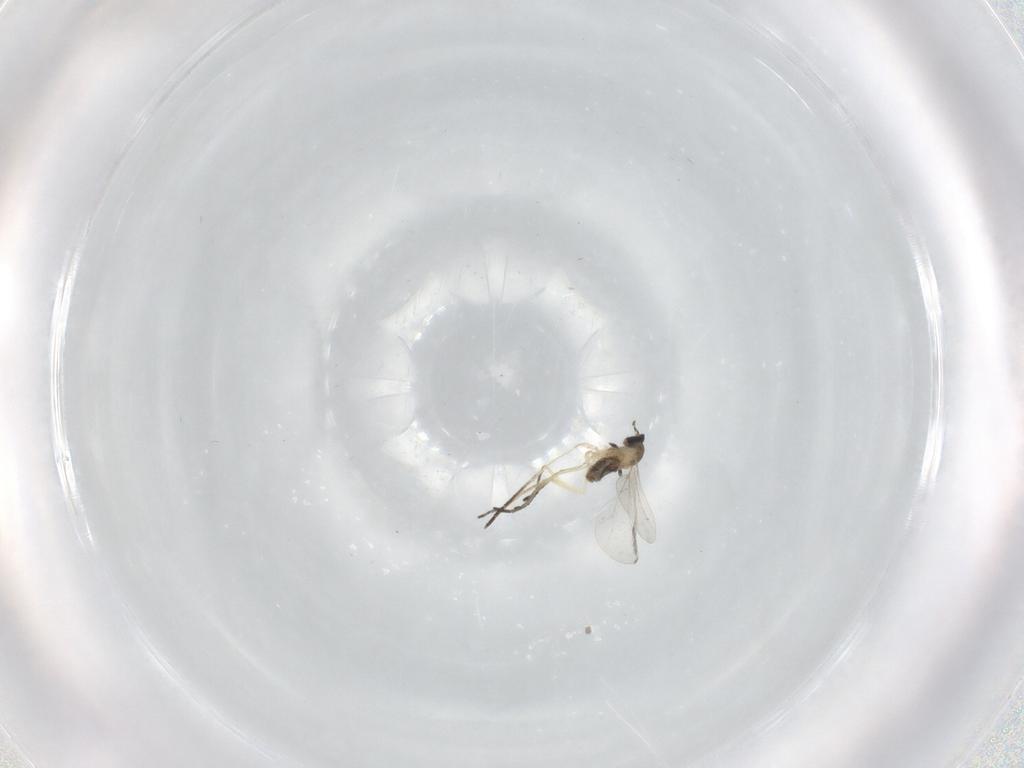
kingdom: Animalia
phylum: Arthropoda
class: Insecta
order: Diptera
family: Cecidomyiidae
